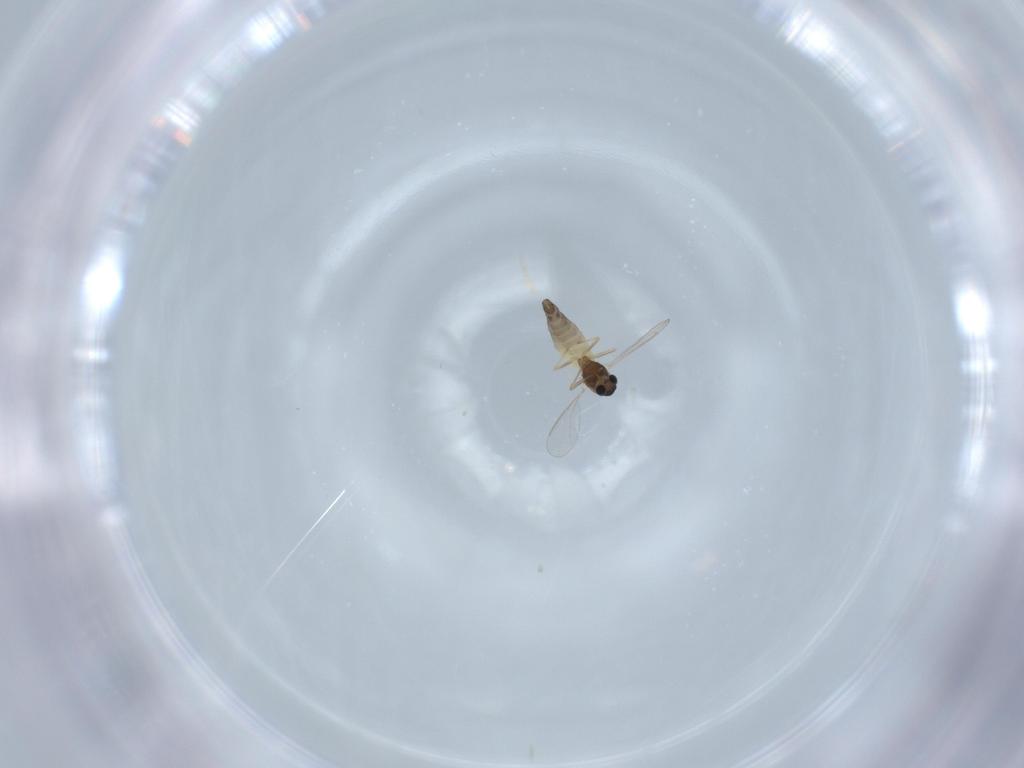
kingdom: Animalia
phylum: Arthropoda
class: Insecta
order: Diptera
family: Chironomidae
